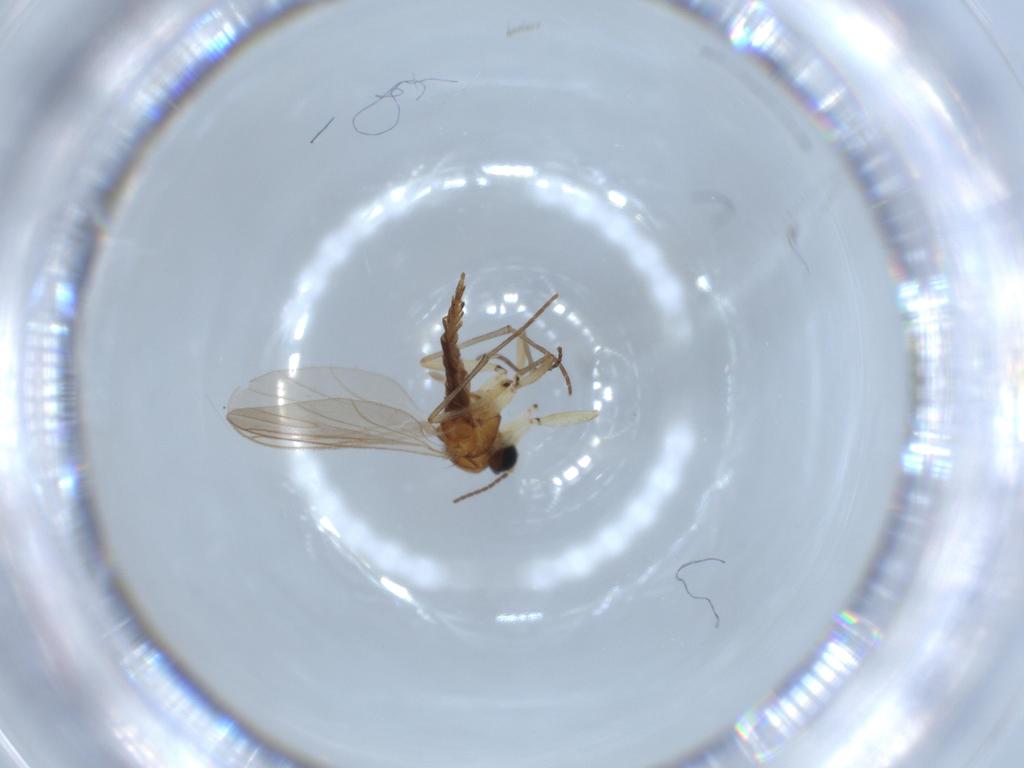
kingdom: Animalia
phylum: Arthropoda
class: Insecta
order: Diptera
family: Sciaridae
